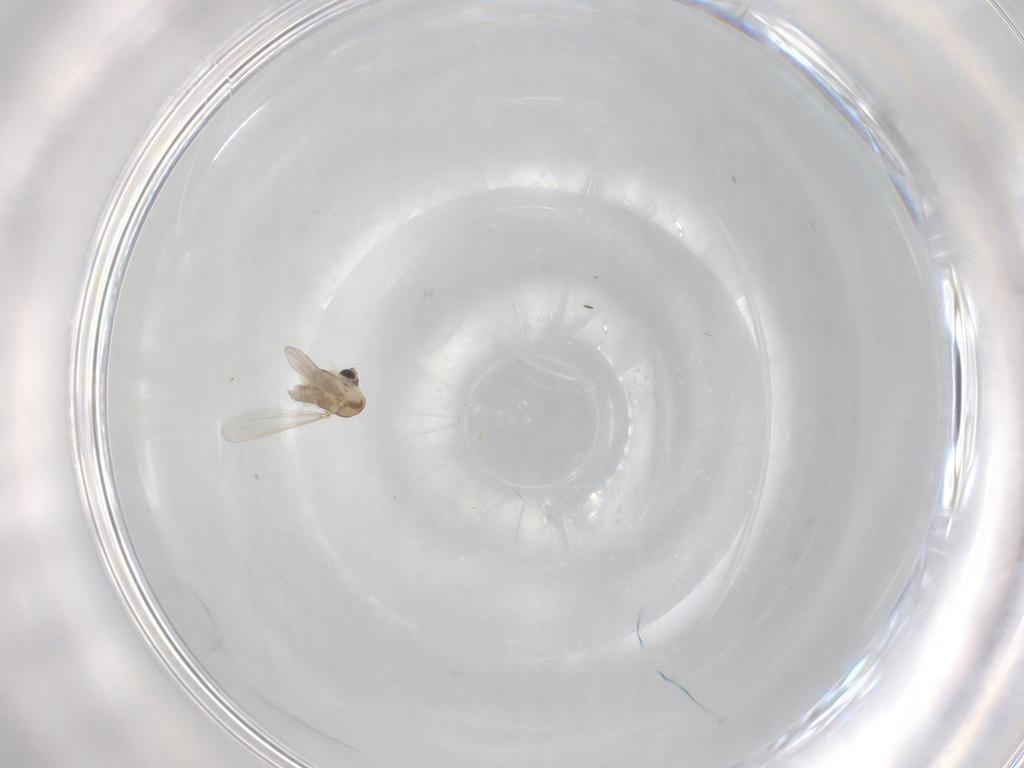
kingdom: Animalia
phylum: Arthropoda
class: Insecta
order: Diptera
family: Chironomidae
